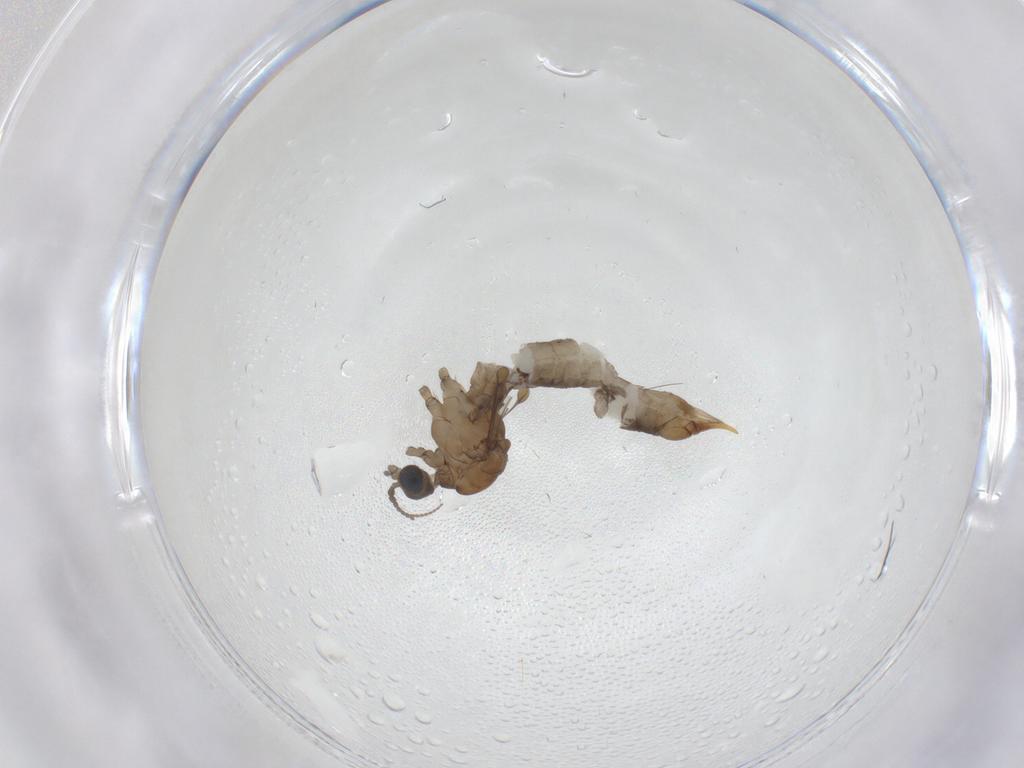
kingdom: Animalia
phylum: Arthropoda
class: Insecta
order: Diptera
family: Limoniidae
